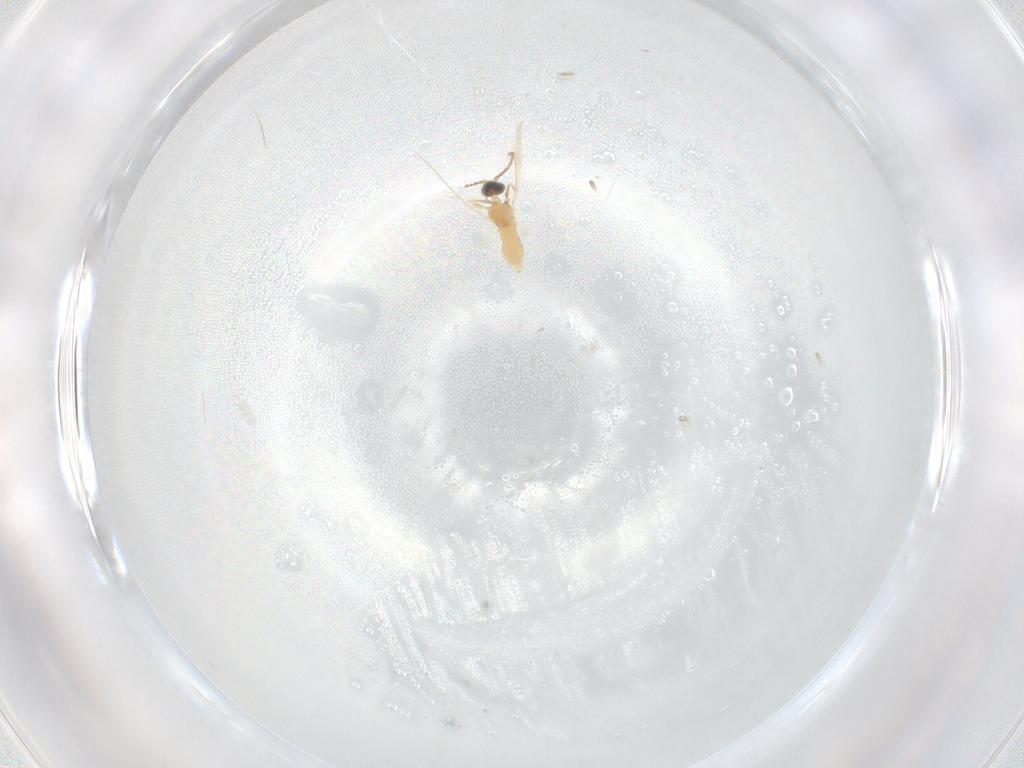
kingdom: Animalia
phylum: Arthropoda
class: Insecta
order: Diptera
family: Cecidomyiidae
